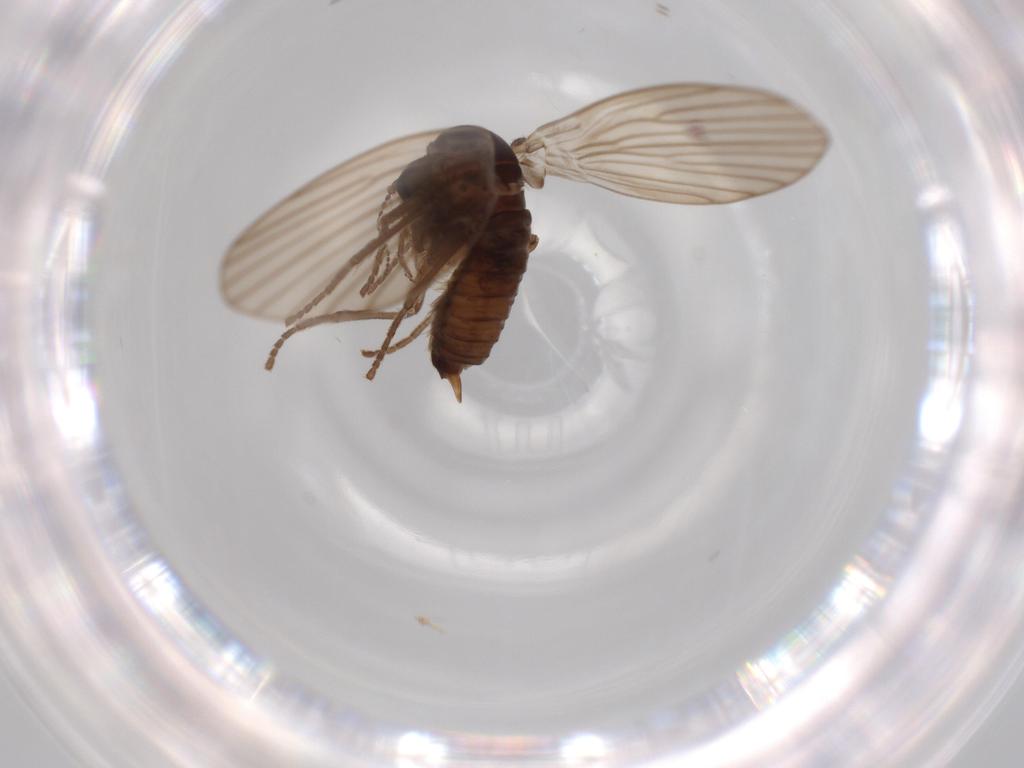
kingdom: Animalia
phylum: Arthropoda
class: Insecta
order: Diptera
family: Psychodidae
